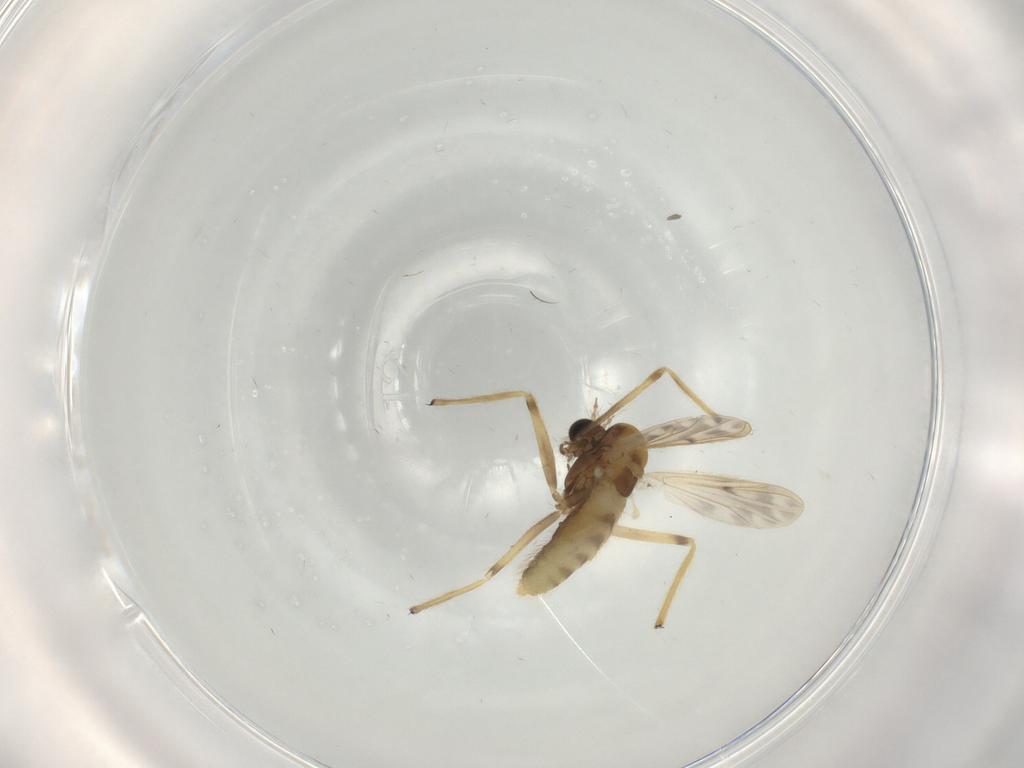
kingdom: Animalia
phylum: Arthropoda
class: Insecta
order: Diptera
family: Chironomidae
